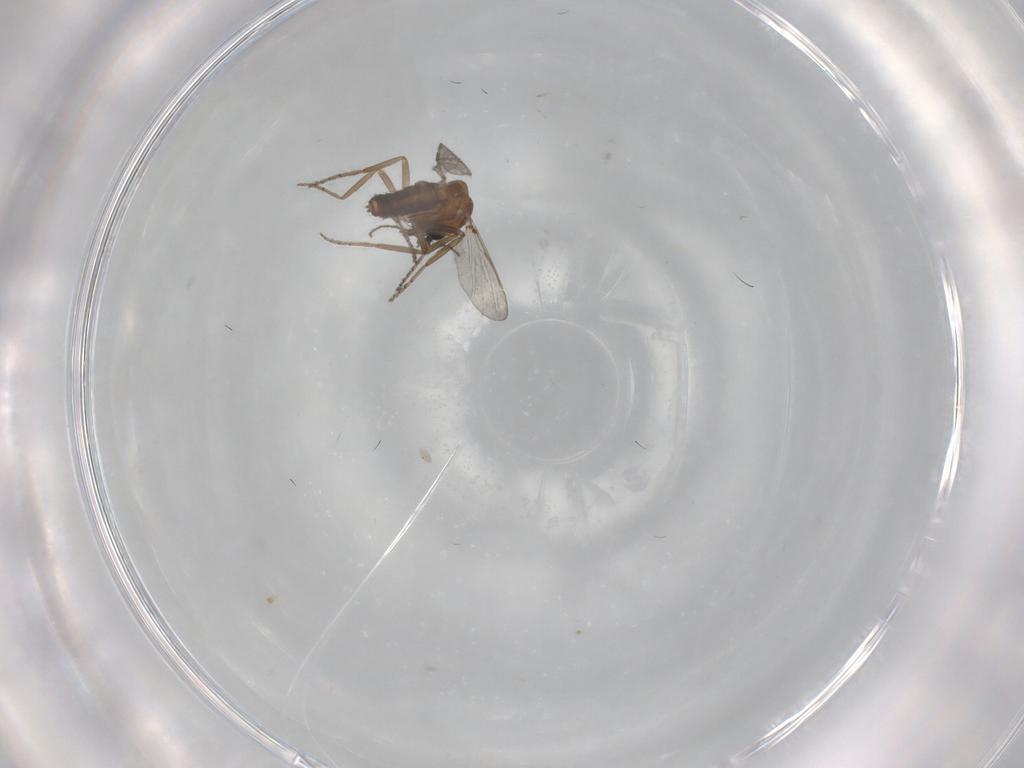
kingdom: Animalia
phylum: Arthropoda
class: Insecta
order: Diptera
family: Ceratopogonidae
